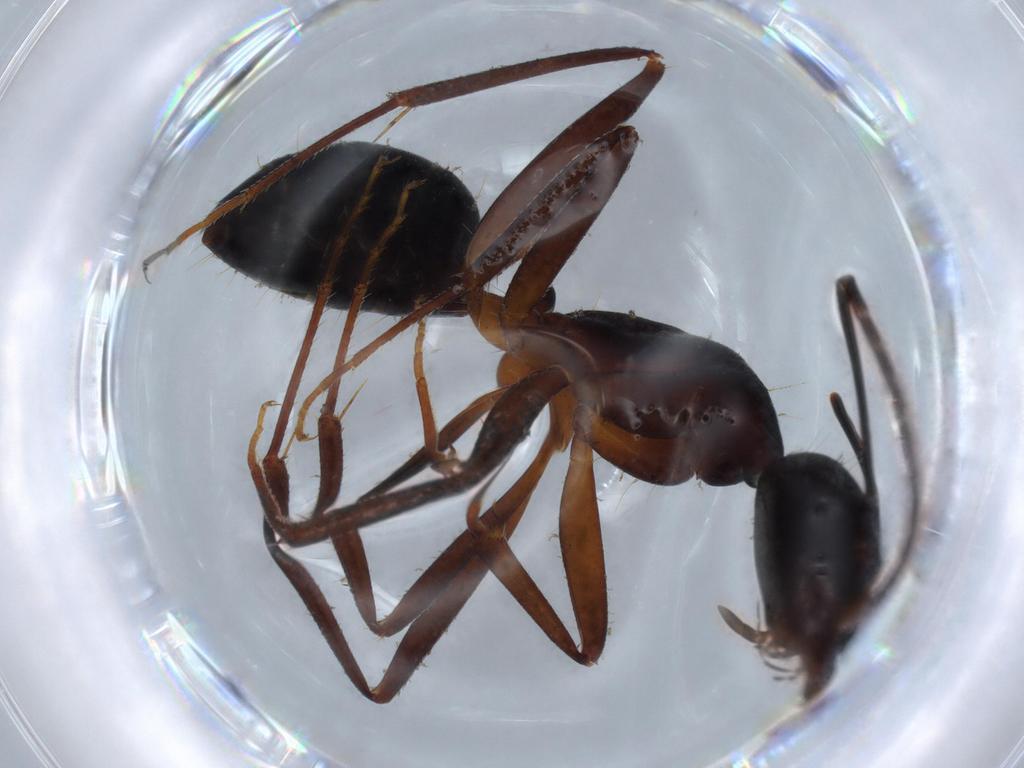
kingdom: Animalia
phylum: Arthropoda
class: Insecta
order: Hymenoptera
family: Formicidae
